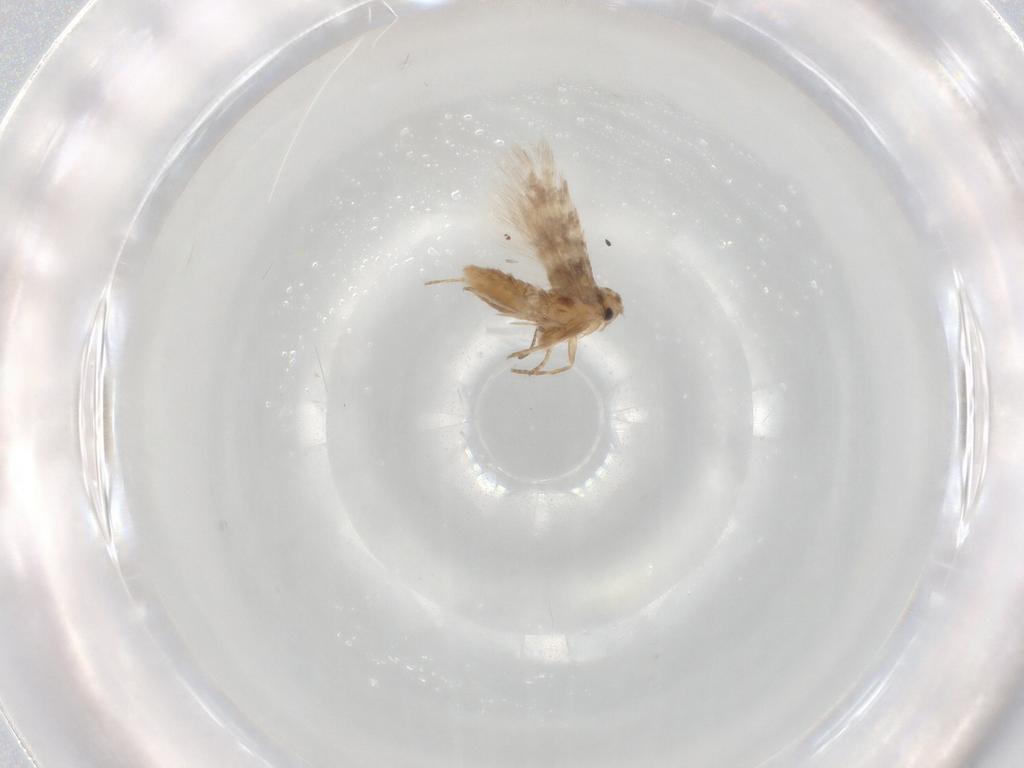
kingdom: Animalia
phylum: Arthropoda
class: Insecta
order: Lepidoptera
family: Nymphalidae
